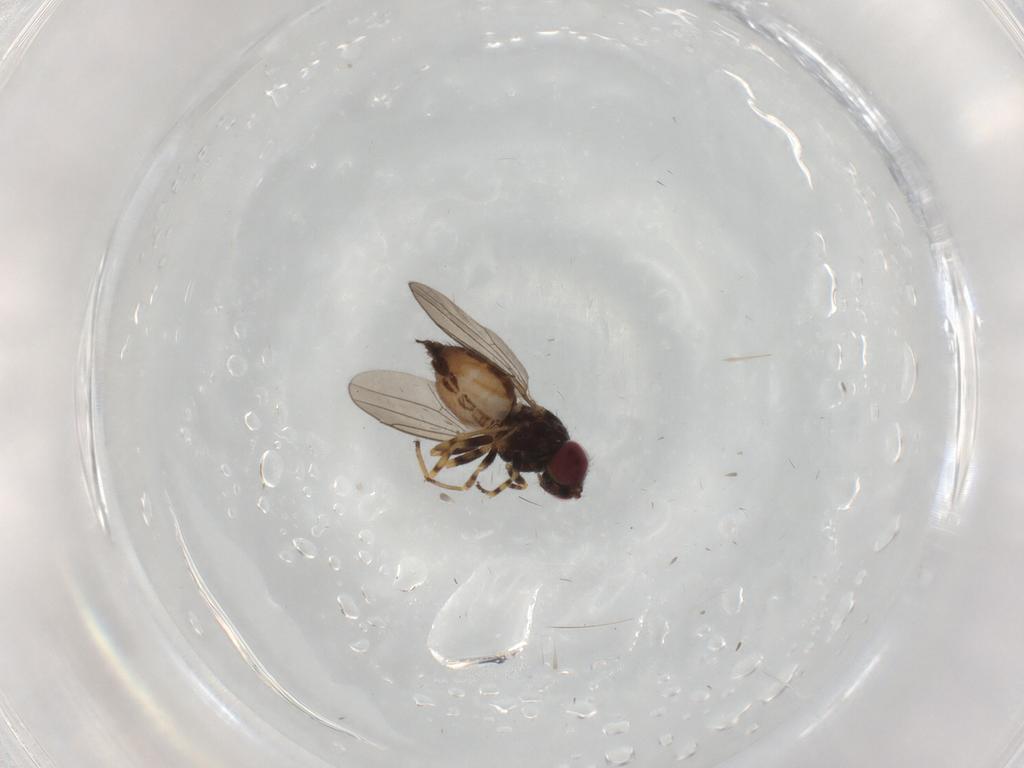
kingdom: Animalia
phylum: Arthropoda
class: Insecta
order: Diptera
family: Chloropidae
